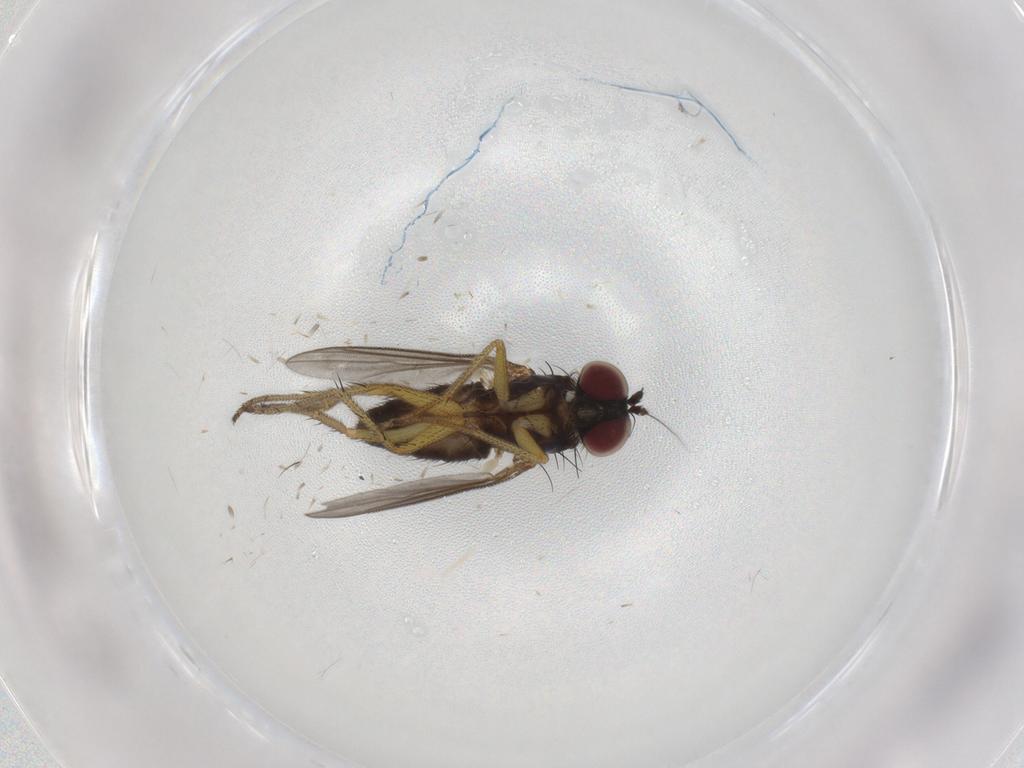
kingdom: Animalia
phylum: Arthropoda
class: Insecta
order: Diptera
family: Dolichopodidae
